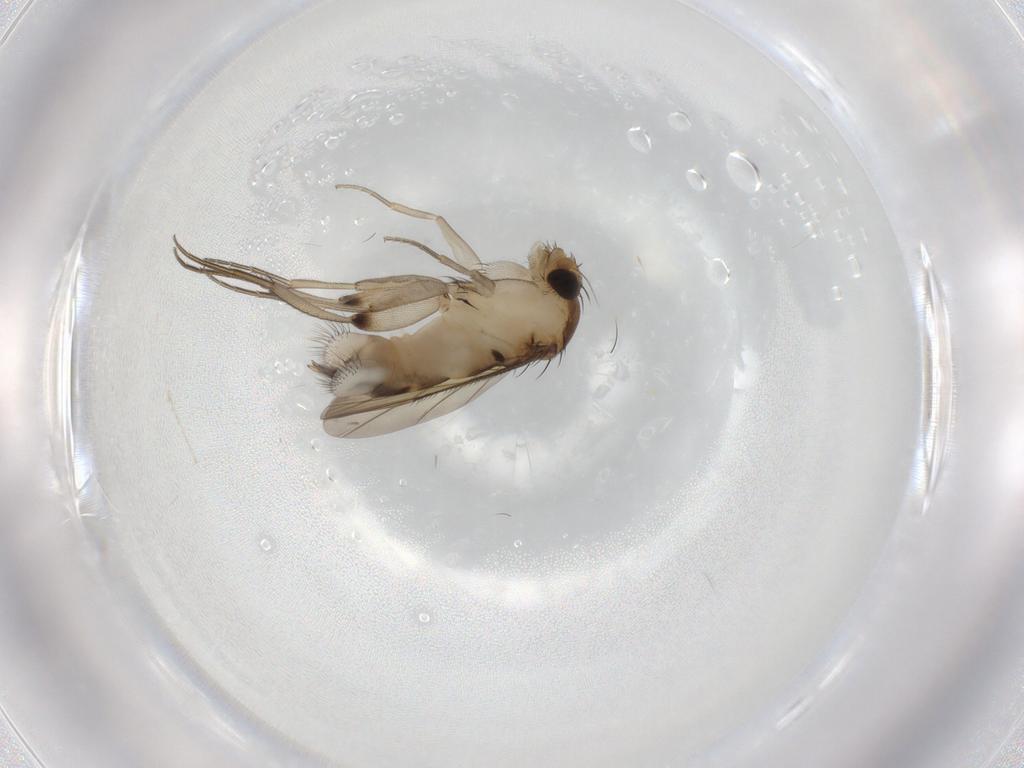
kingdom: Animalia
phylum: Arthropoda
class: Insecta
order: Diptera
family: Phoridae
